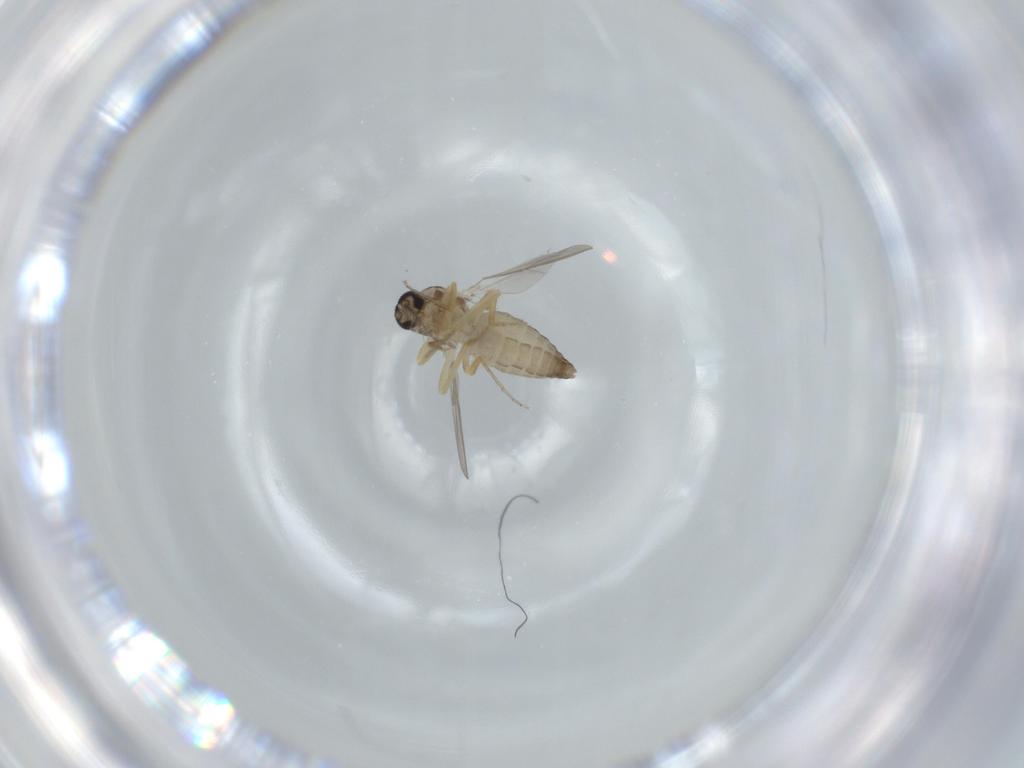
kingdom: Animalia
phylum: Arthropoda
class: Insecta
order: Diptera
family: Ceratopogonidae
